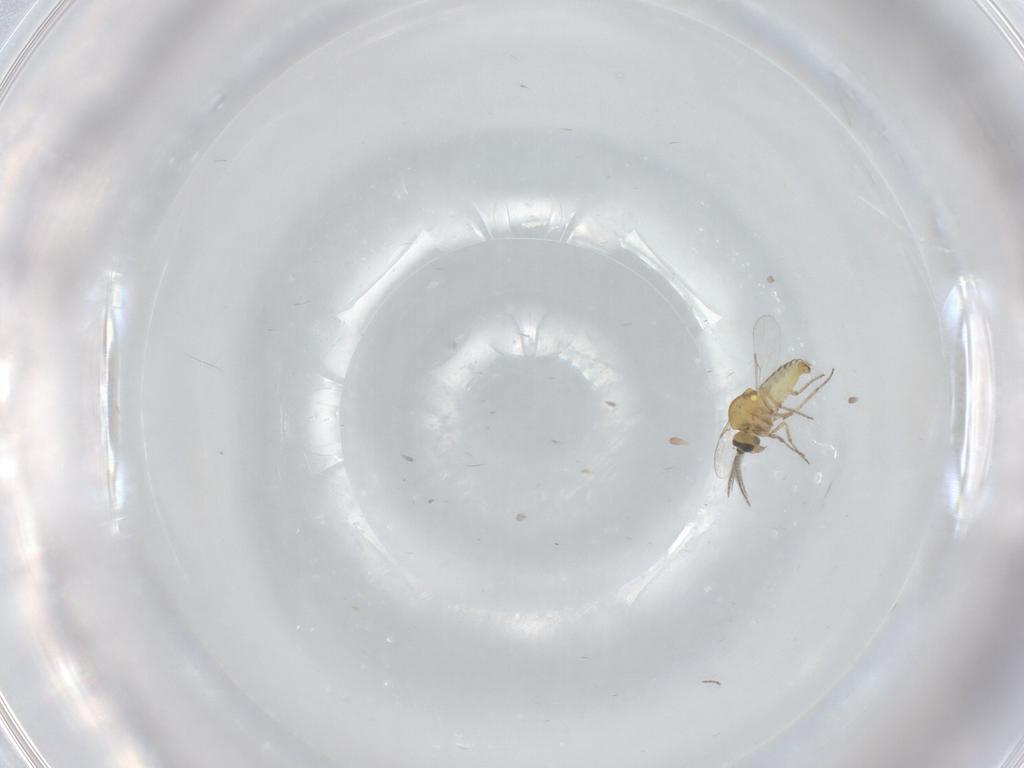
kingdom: Animalia
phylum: Arthropoda
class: Insecta
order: Diptera
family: Ceratopogonidae
